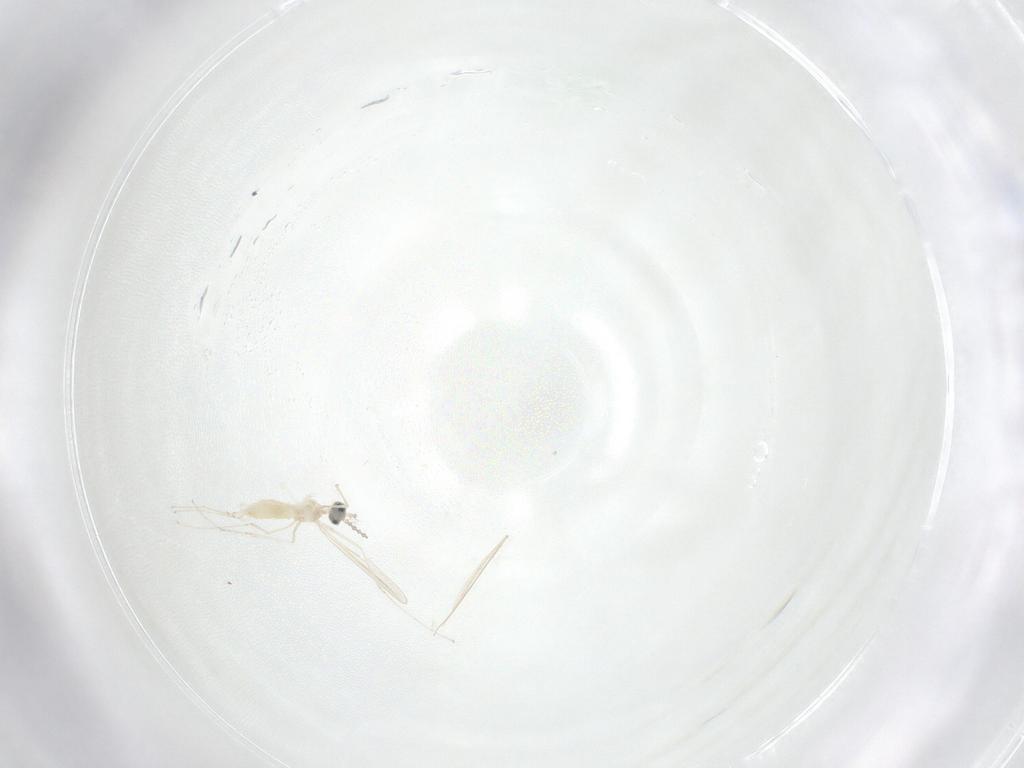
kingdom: Animalia
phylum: Arthropoda
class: Insecta
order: Diptera
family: Cecidomyiidae
